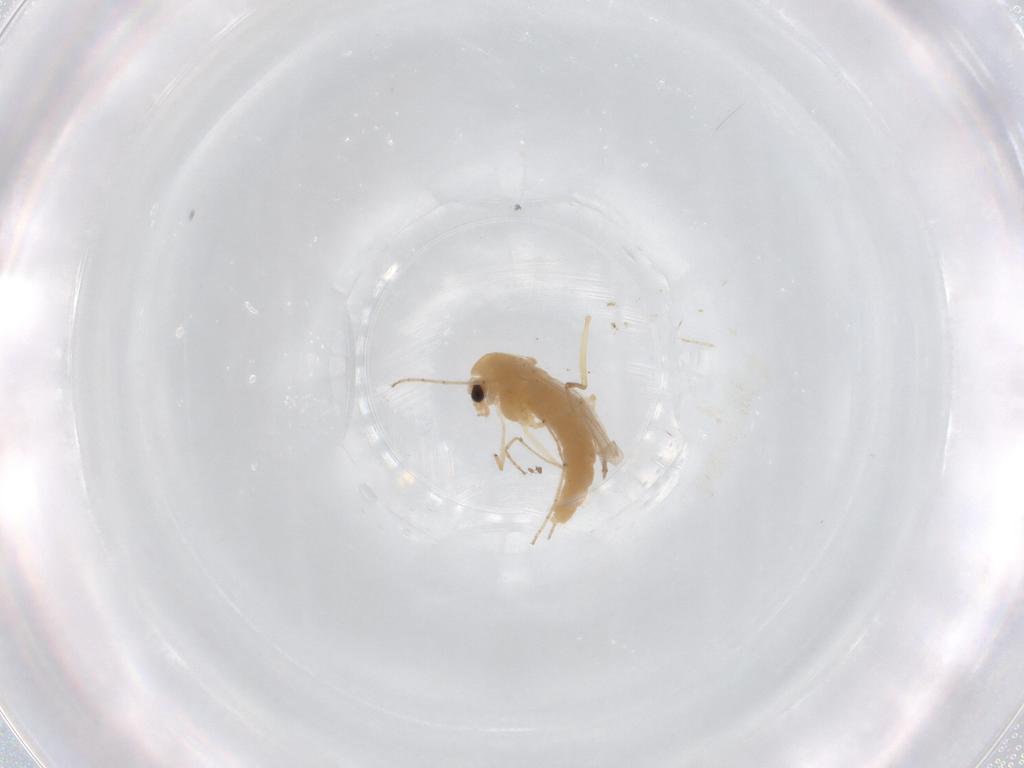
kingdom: Animalia
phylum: Arthropoda
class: Insecta
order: Diptera
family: Chironomidae
